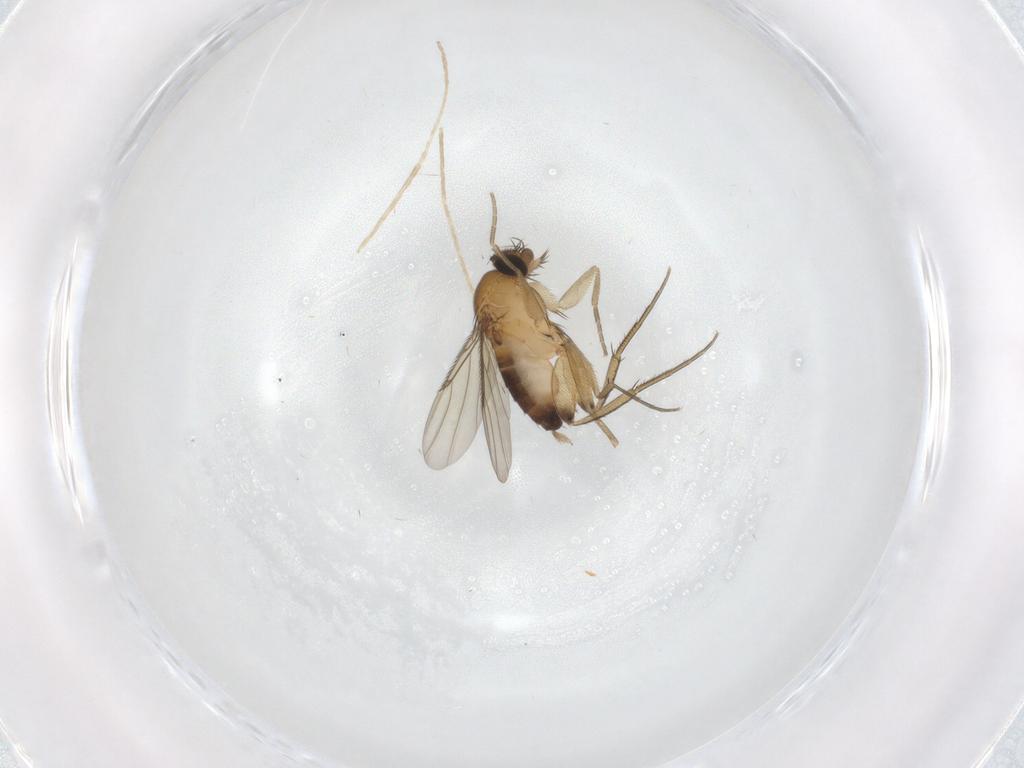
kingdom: Animalia
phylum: Arthropoda
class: Insecta
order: Diptera
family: Phoridae
